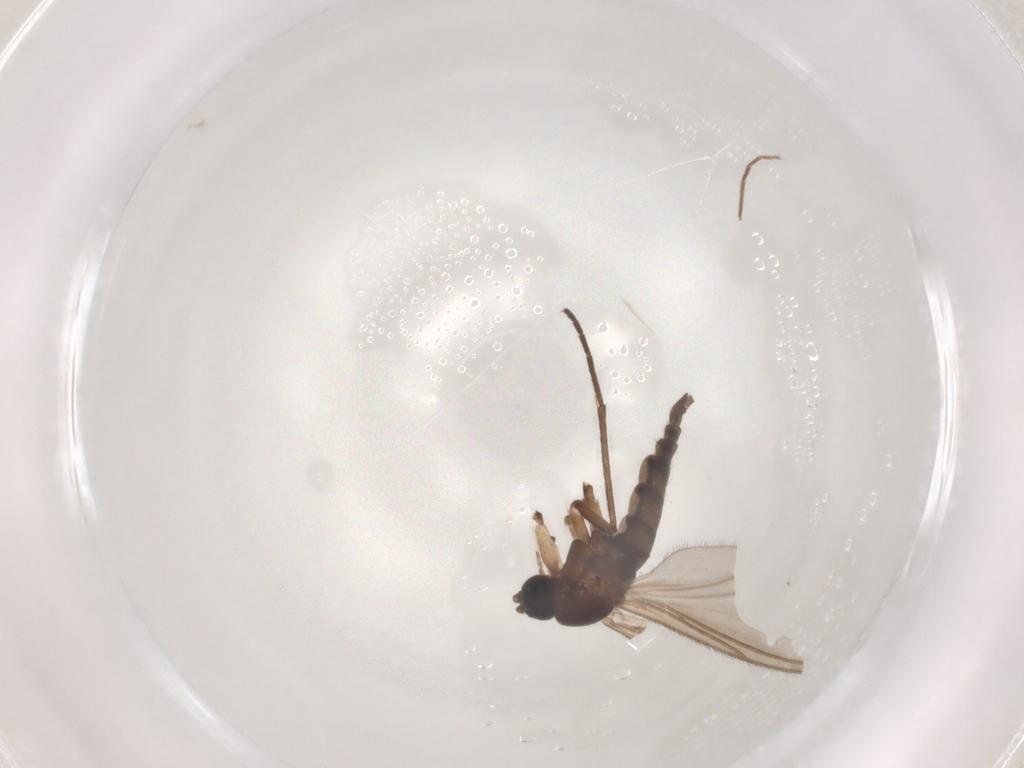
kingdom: Animalia
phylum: Arthropoda
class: Insecta
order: Diptera
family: Sciaridae
